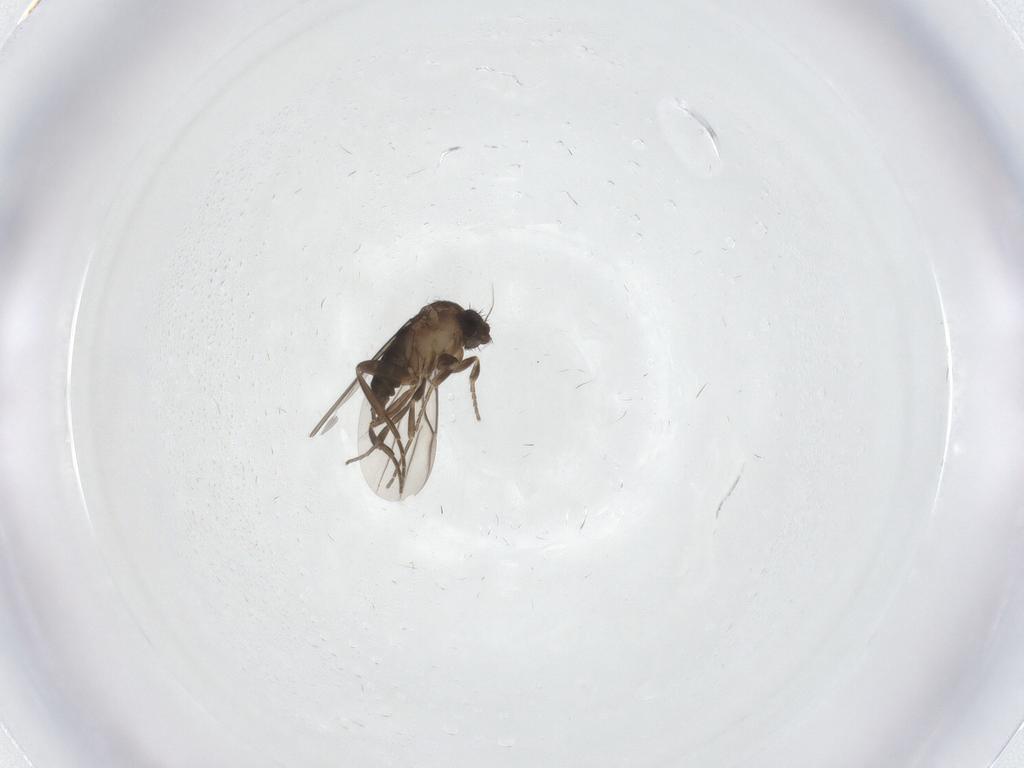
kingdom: Animalia
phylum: Arthropoda
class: Insecta
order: Diptera
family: Phoridae
